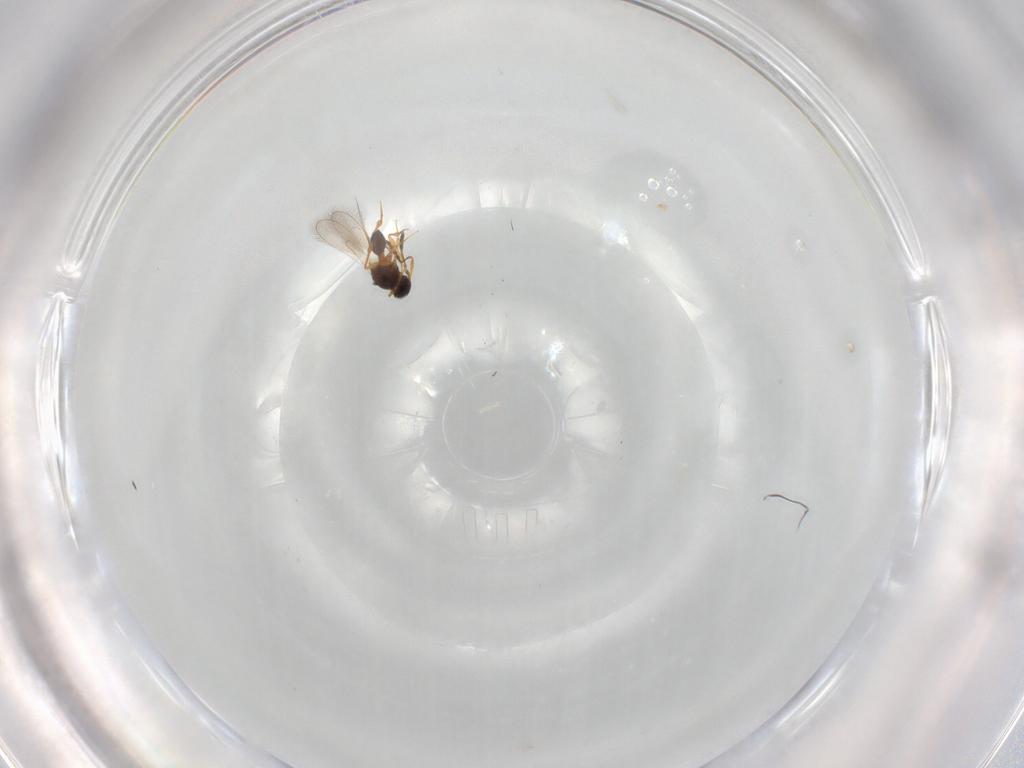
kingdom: Animalia
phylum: Arthropoda
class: Insecta
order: Hymenoptera
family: Platygastridae
